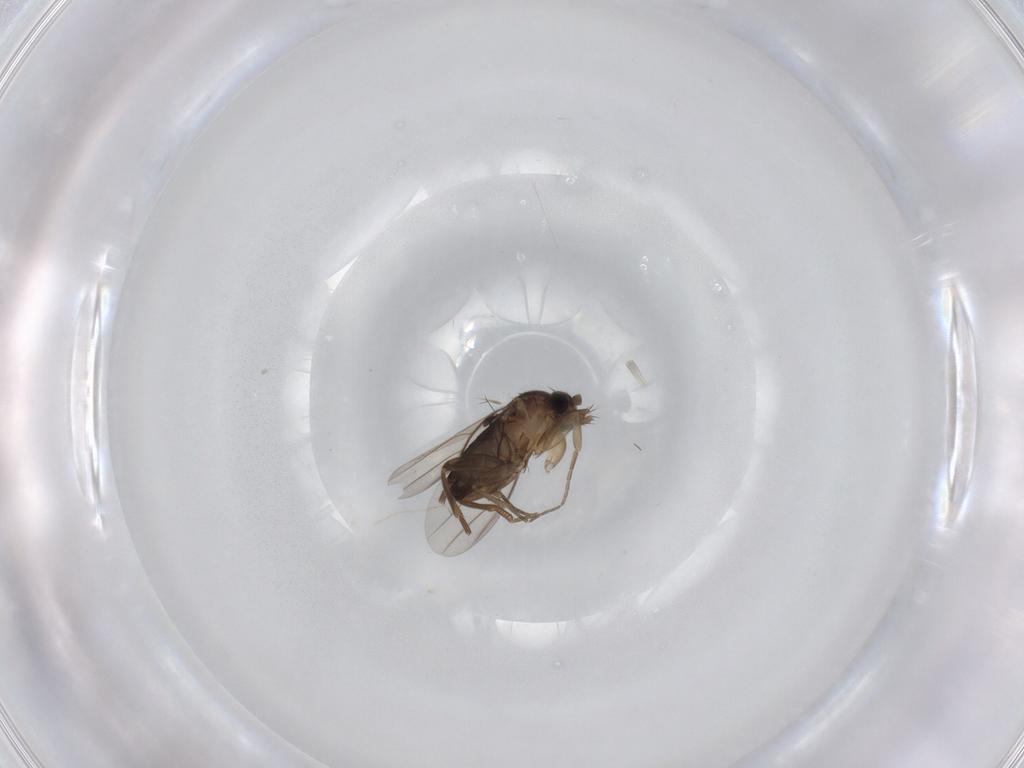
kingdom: Animalia
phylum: Arthropoda
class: Insecta
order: Diptera
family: Phoridae
